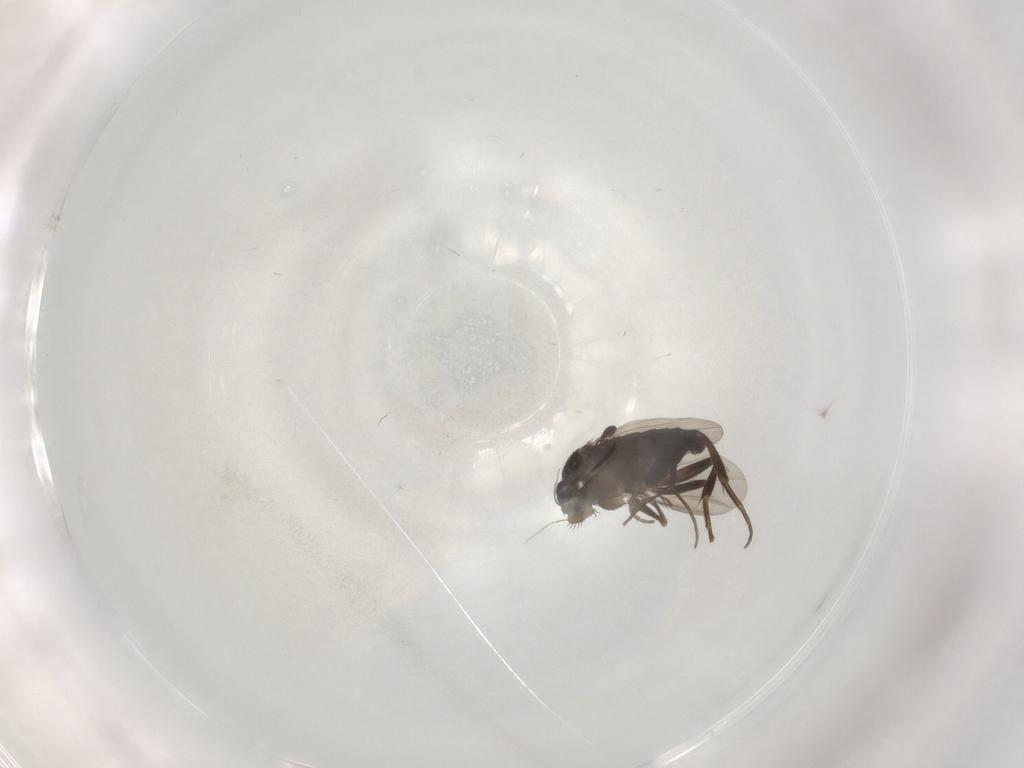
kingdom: Animalia
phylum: Arthropoda
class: Insecta
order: Diptera
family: Phoridae
